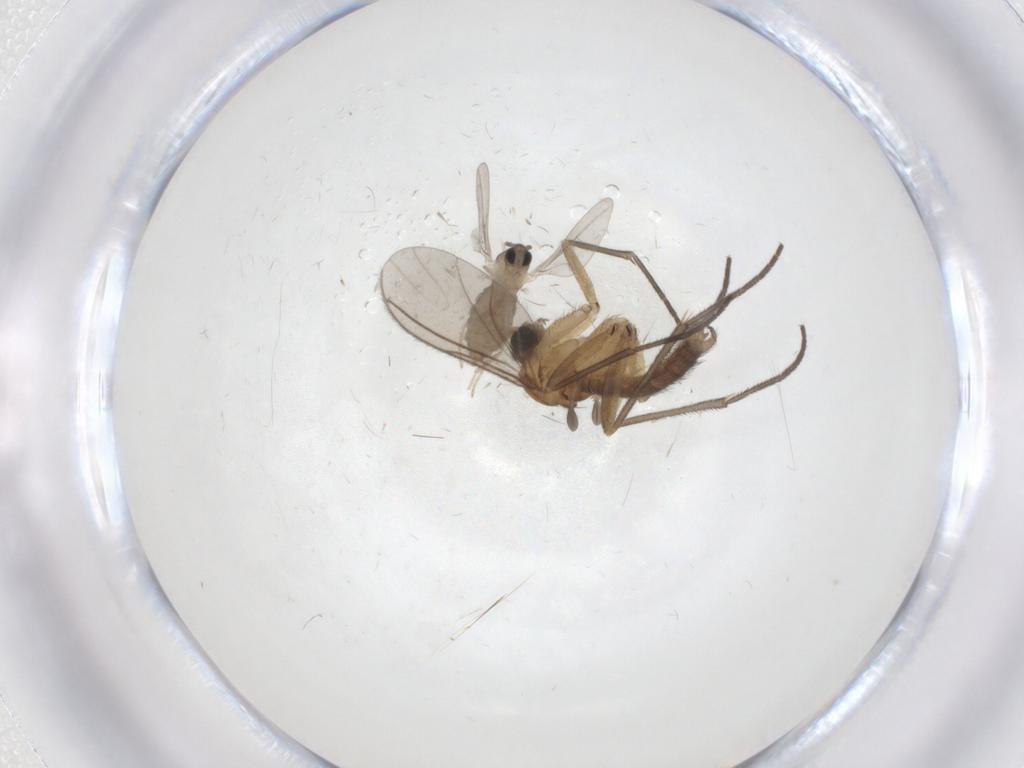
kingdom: Animalia
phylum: Arthropoda
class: Insecta
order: Diptera
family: Sciaridae
